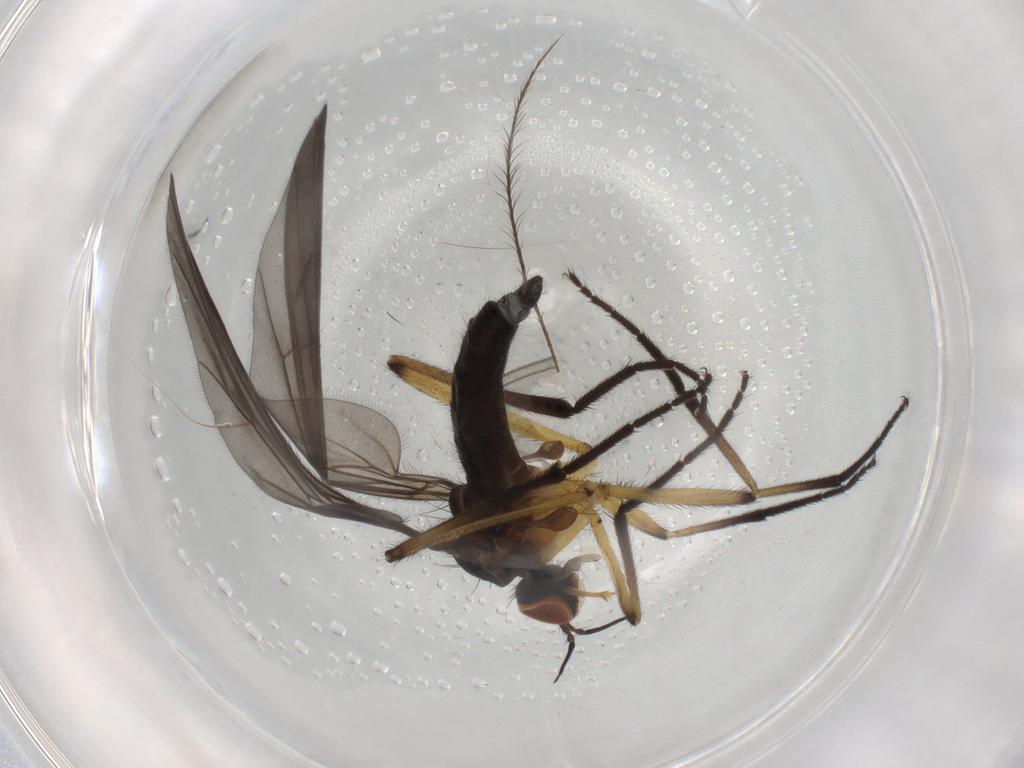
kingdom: Animalia
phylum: Arthropoda
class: Insecta
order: Diptera
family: Empididae
